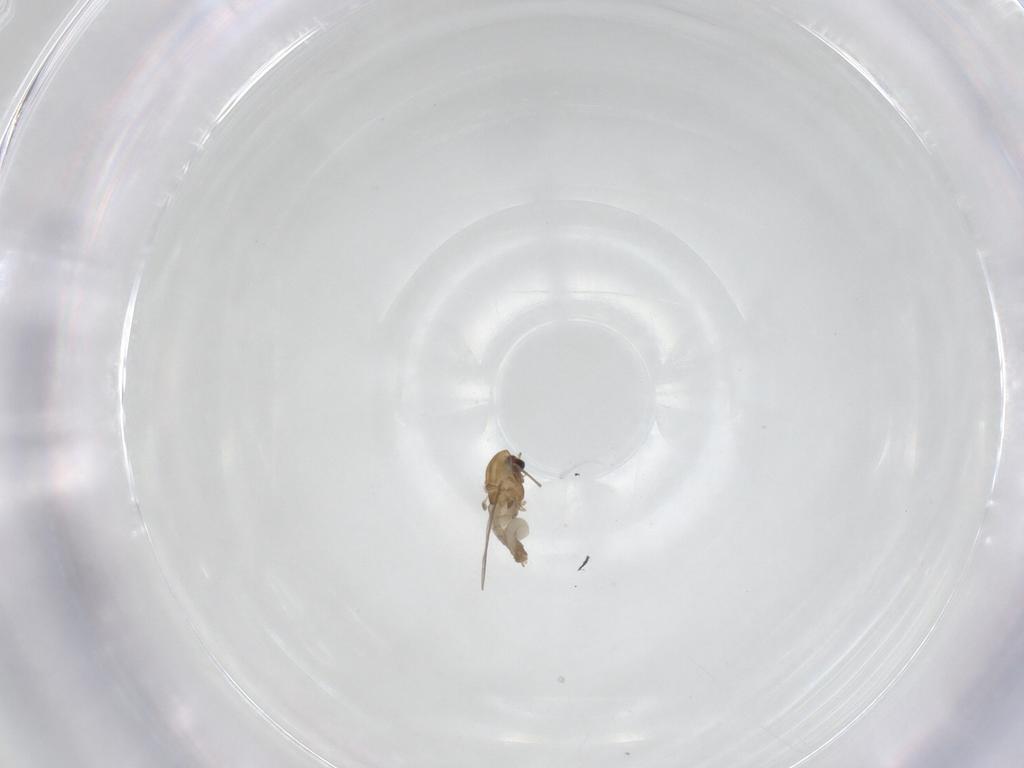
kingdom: Animalia
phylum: Arthropoda
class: Insecta
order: Diptera
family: Chironomidae
